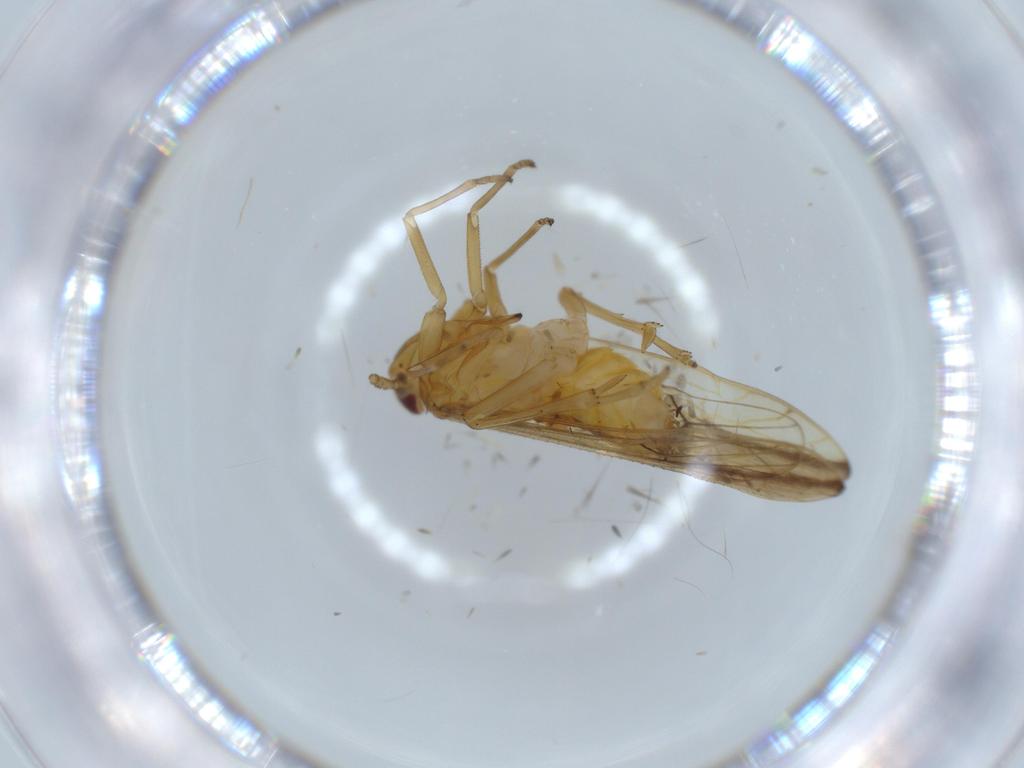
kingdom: Animalia
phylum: Arthropoda
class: Insecta
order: Hemiptera
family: Delphacidae
